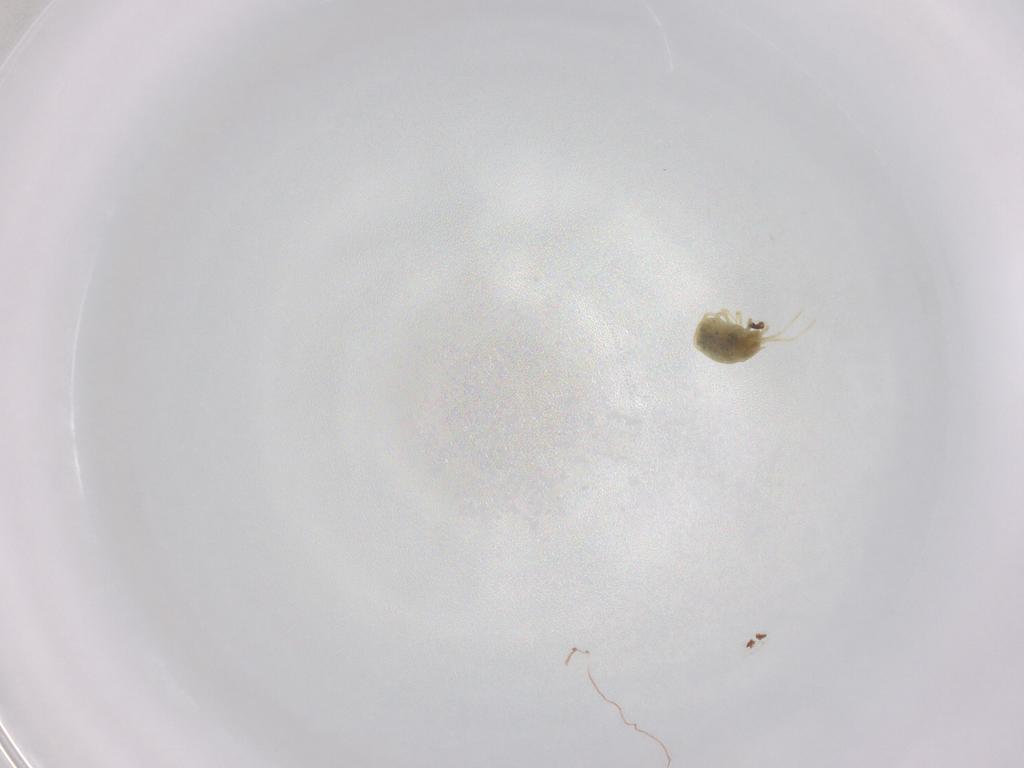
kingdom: Animalia
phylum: Arthropoda
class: Arachnida
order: Trombidiformes
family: Tetranychidae
